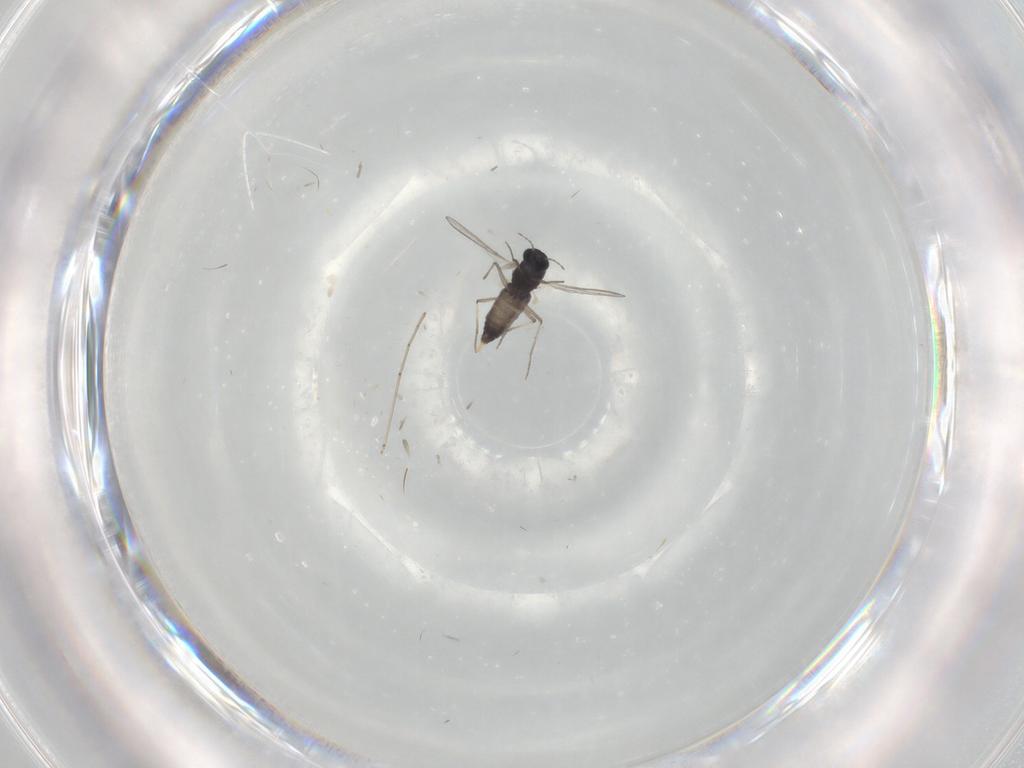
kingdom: Animalia
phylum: Arthropoda
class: Insecta
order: Diptera
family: Chironomidae
